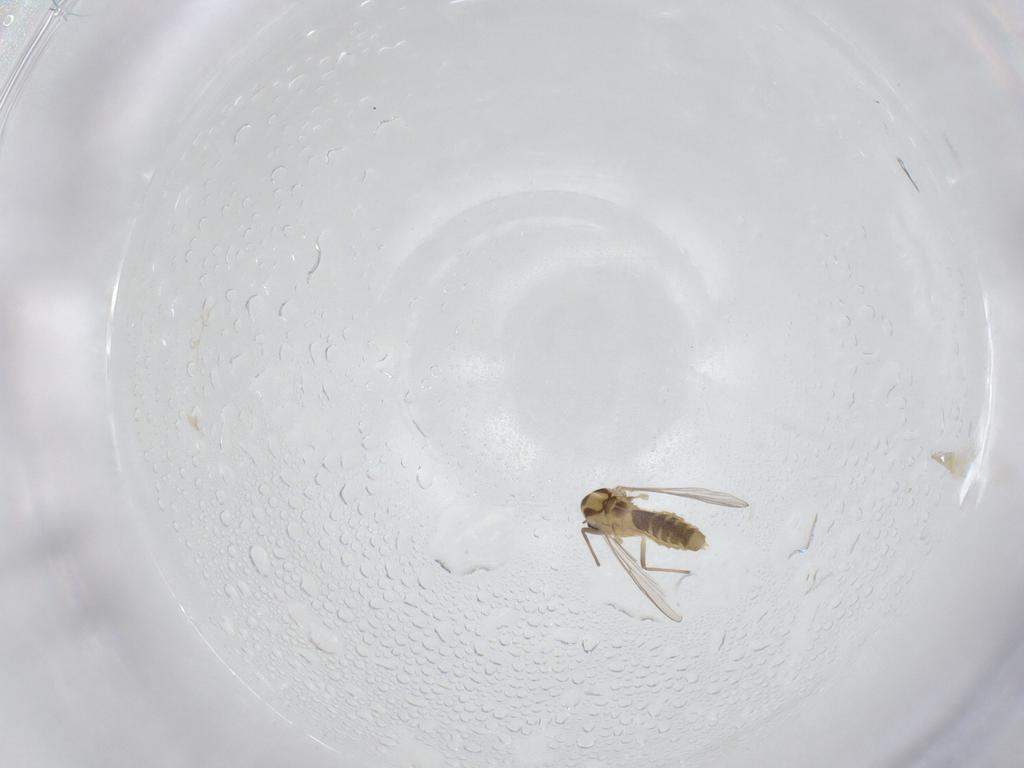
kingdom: Animalia
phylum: Arthropoda
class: Insecta
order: Diptera
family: Chironomidae
